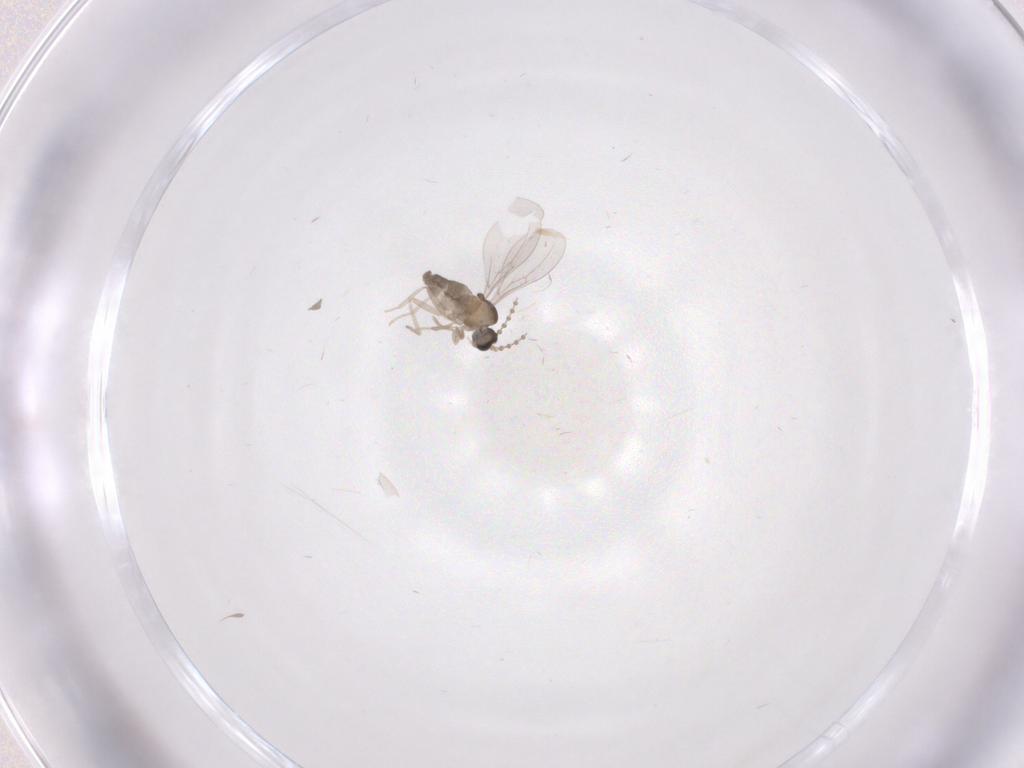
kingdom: Animalia
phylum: Arthropoda
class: Insecta
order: Diptera
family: Cecidomyiidae
